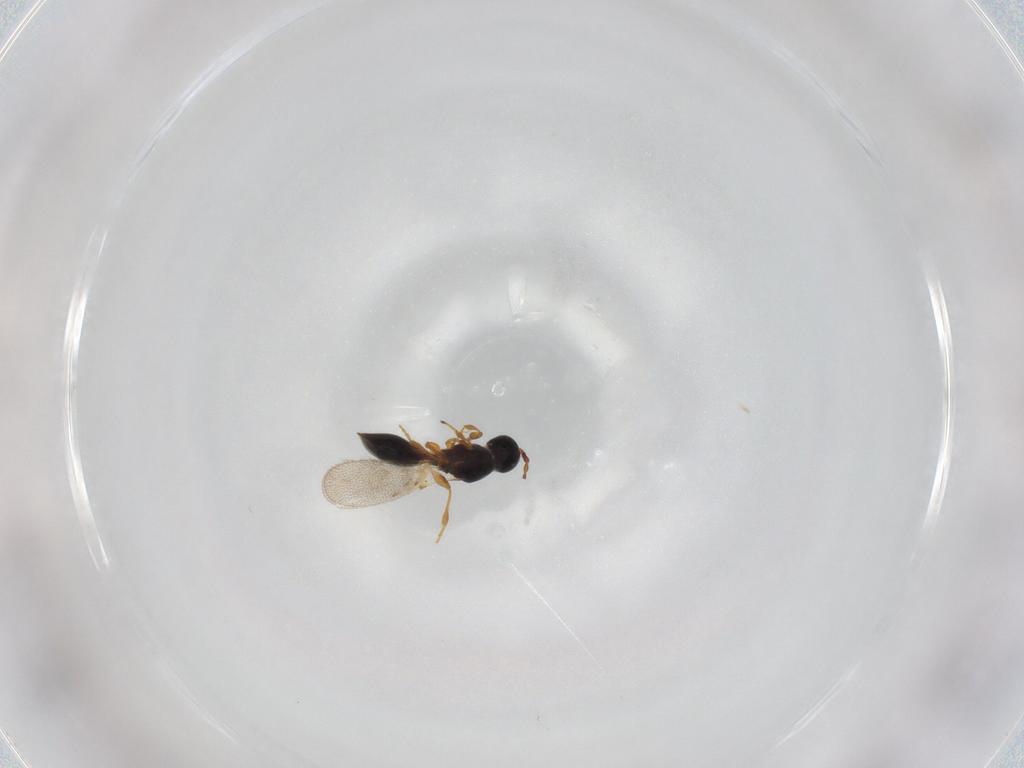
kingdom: Animalia
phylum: Arthropoda
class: Insecta
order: Hymenoptera
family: Diapriidae
